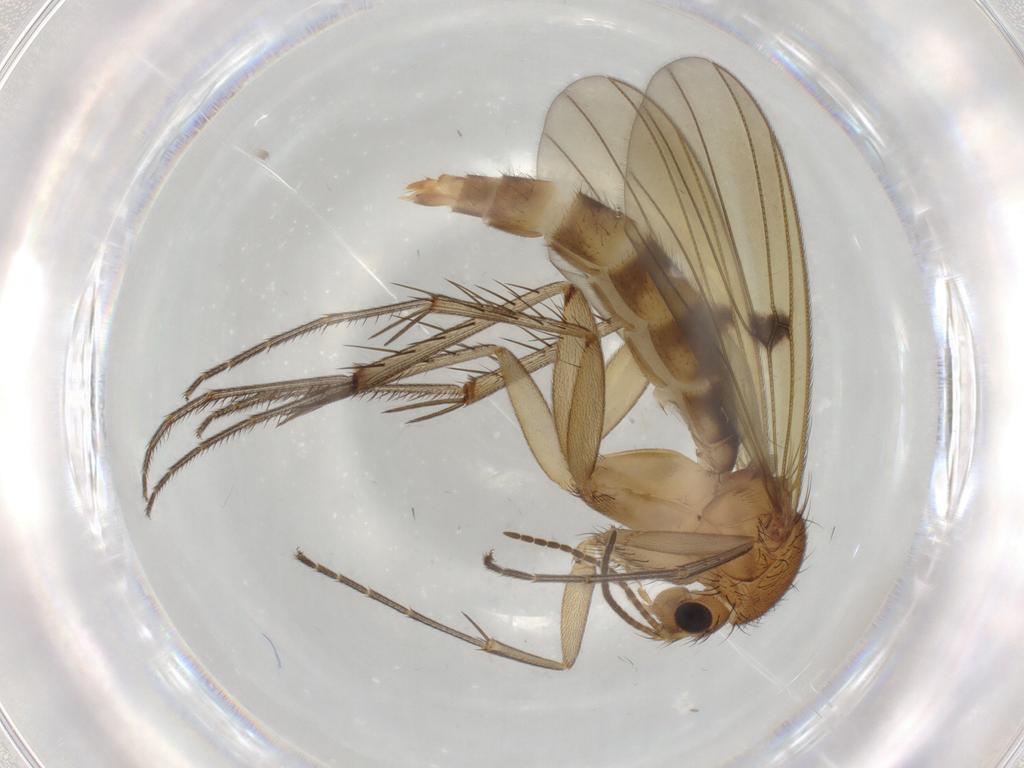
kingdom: Animalia
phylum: Arthropoda
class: Insecta
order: Diptera
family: Mycetophilidae
